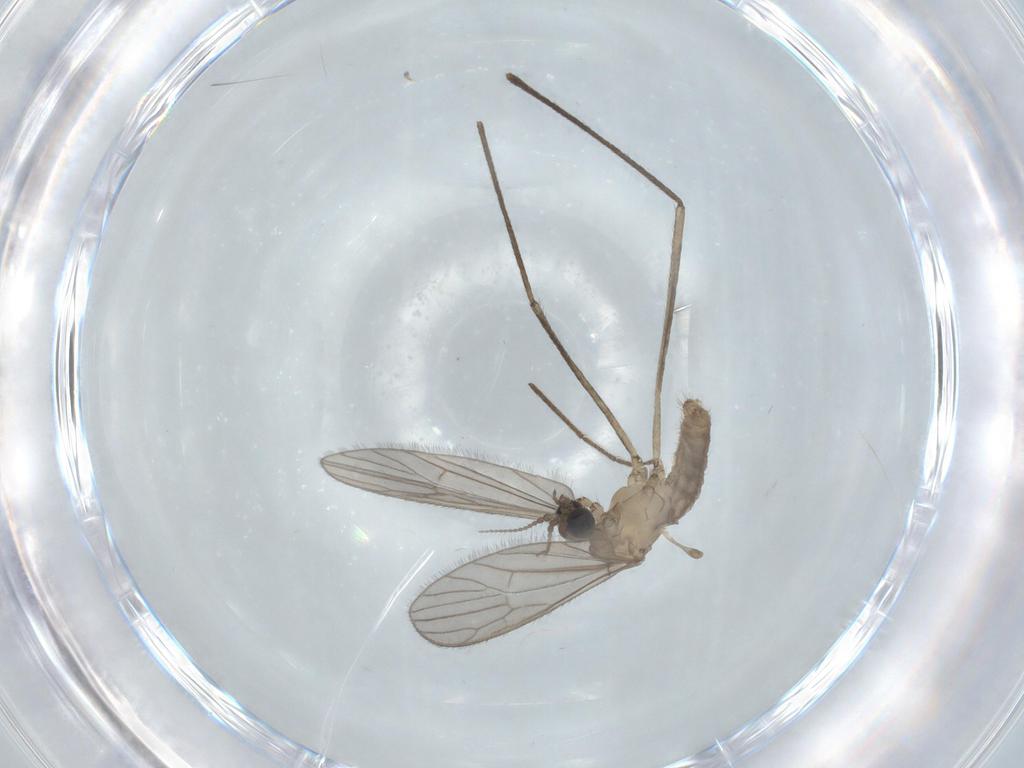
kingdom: Animalia
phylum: Arthropoda
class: Insecta
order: Diptera
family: Limoniidae
